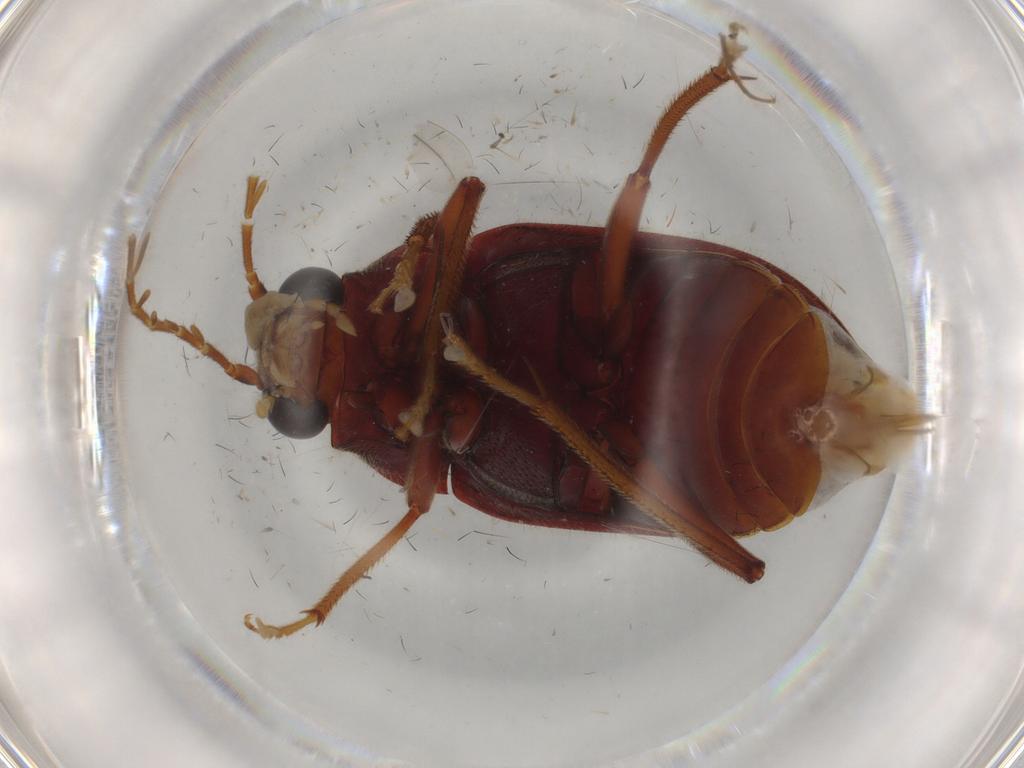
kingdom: Animalia
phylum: Arthropoda
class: Insecta
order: Coleoptera
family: Ptilodactylidae
